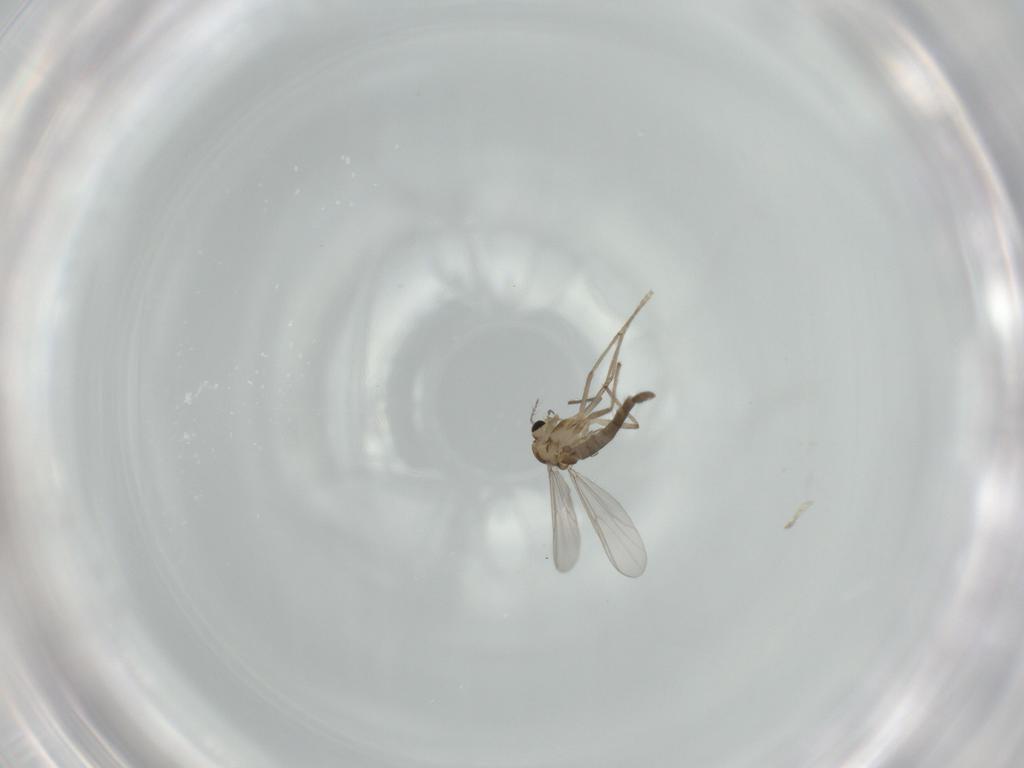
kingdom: Animalia
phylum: Arthropoda
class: Insecta
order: Diptera
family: Chironomidae
